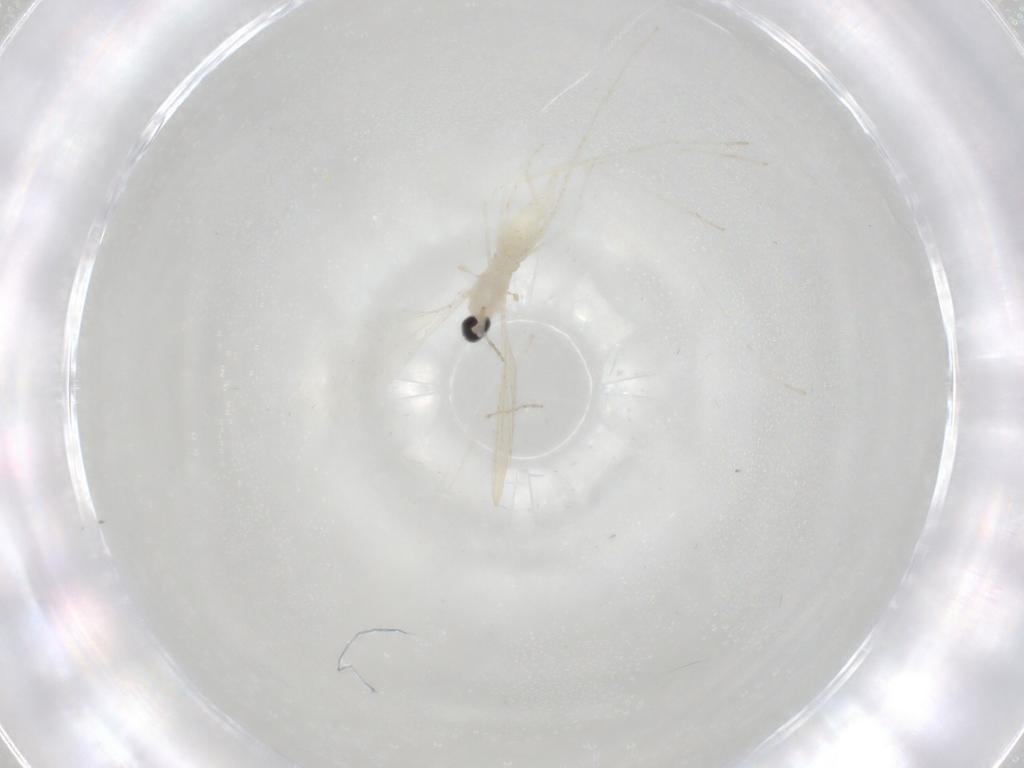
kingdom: Animalia
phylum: Arthropoda
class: Insecta
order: Diptera
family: Cecidomyiidae
